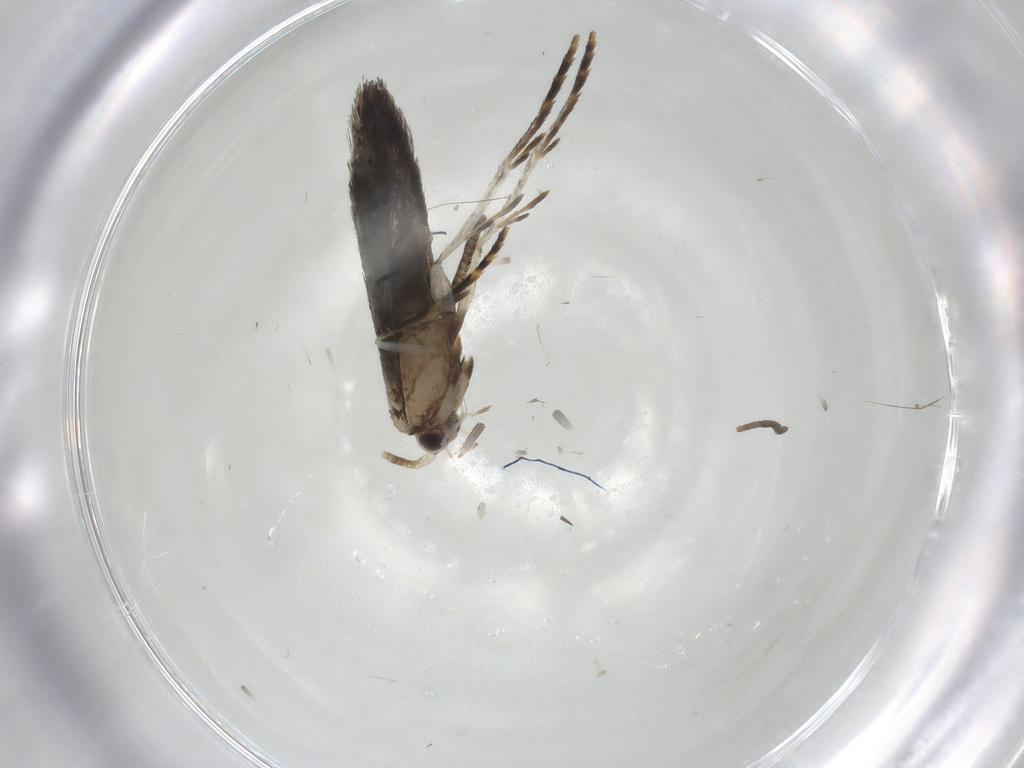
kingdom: Animalia
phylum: Arthropoda
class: Insecta
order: Lepidoptera
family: Tineidae
